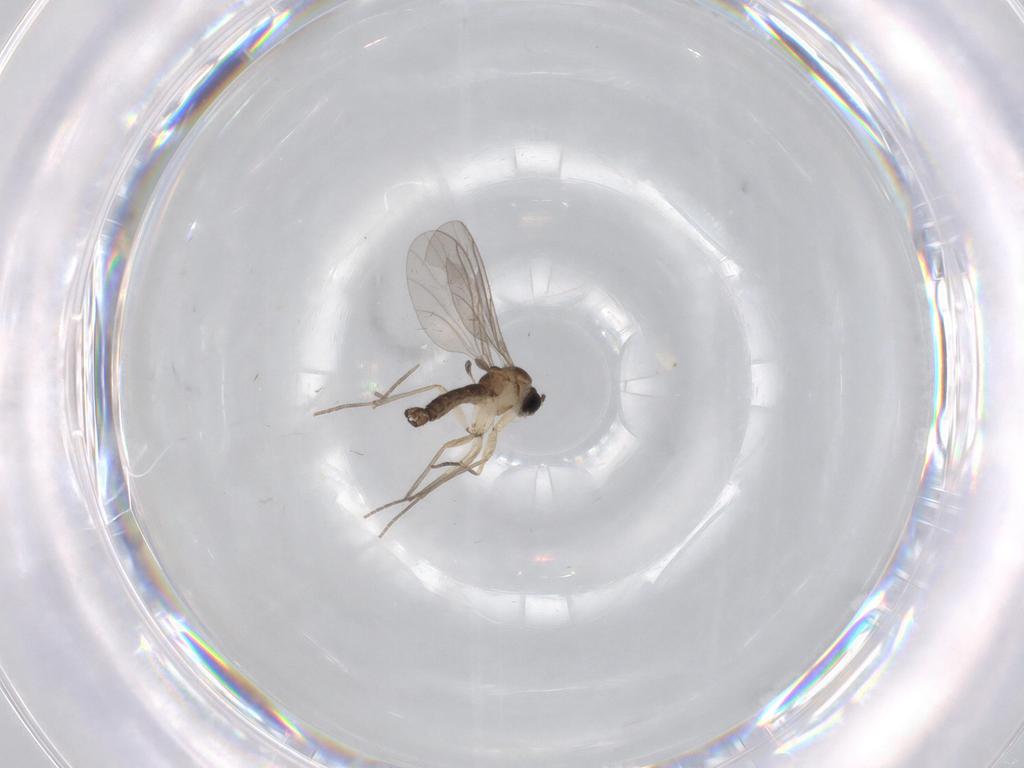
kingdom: Animalia
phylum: Arthropoda
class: Insecta
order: Diptera
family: Sciaridae
